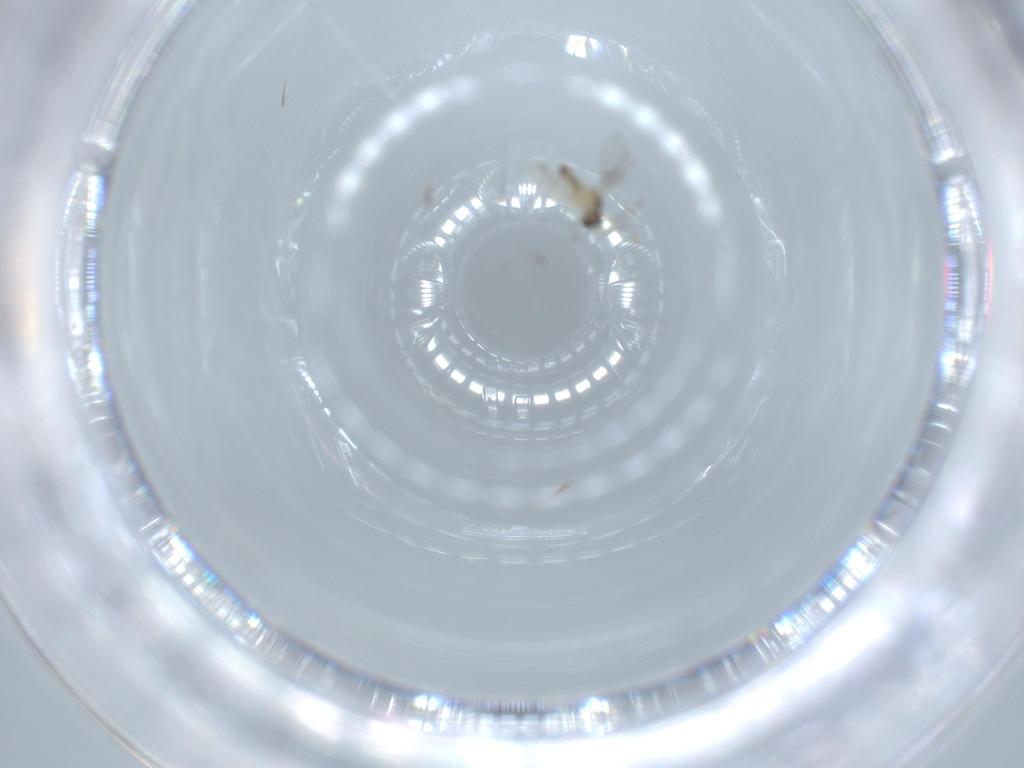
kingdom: Animalia
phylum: Arthropoda
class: Insecta
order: Diptera
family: Cecidomyiidae
